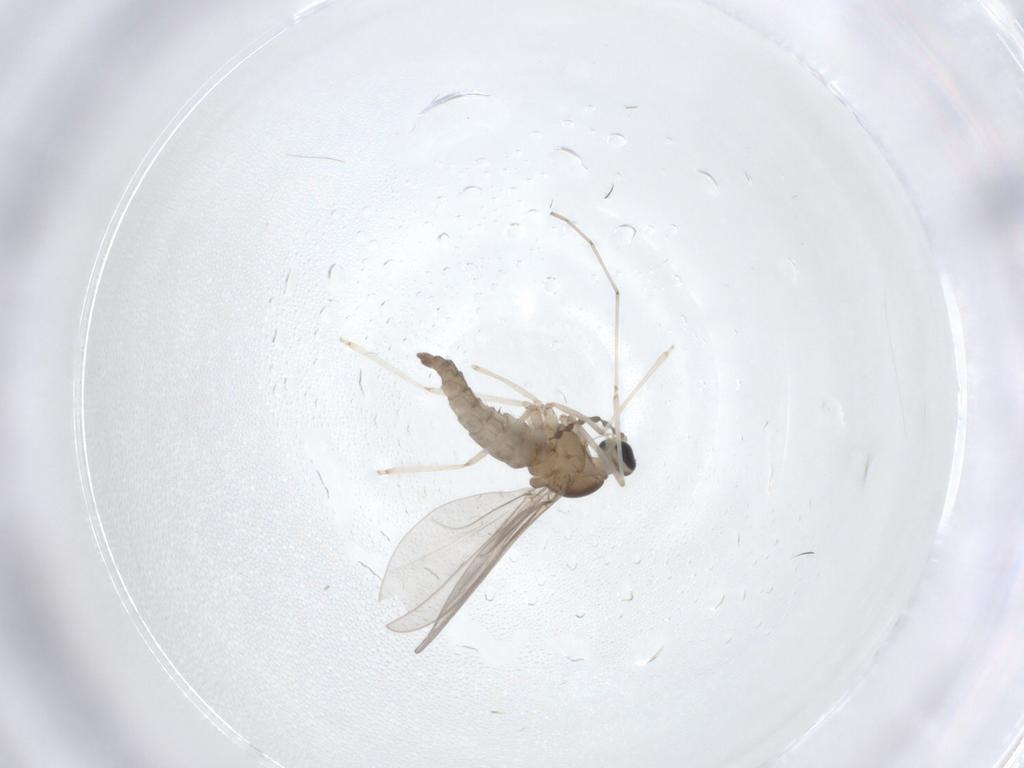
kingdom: Animalia
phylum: Arthropoda
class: Insecta
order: Diptera
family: Chironomidae
